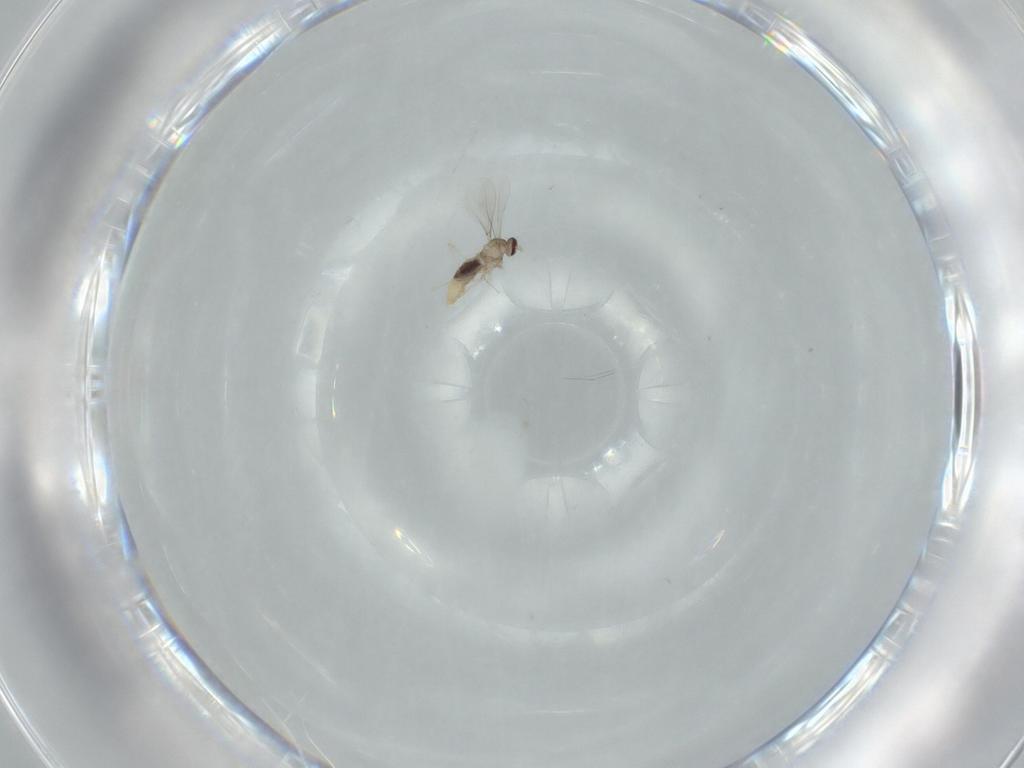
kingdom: Animalia
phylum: Arthropoda
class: Insecta
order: Diptera
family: Cecidomyiidae
